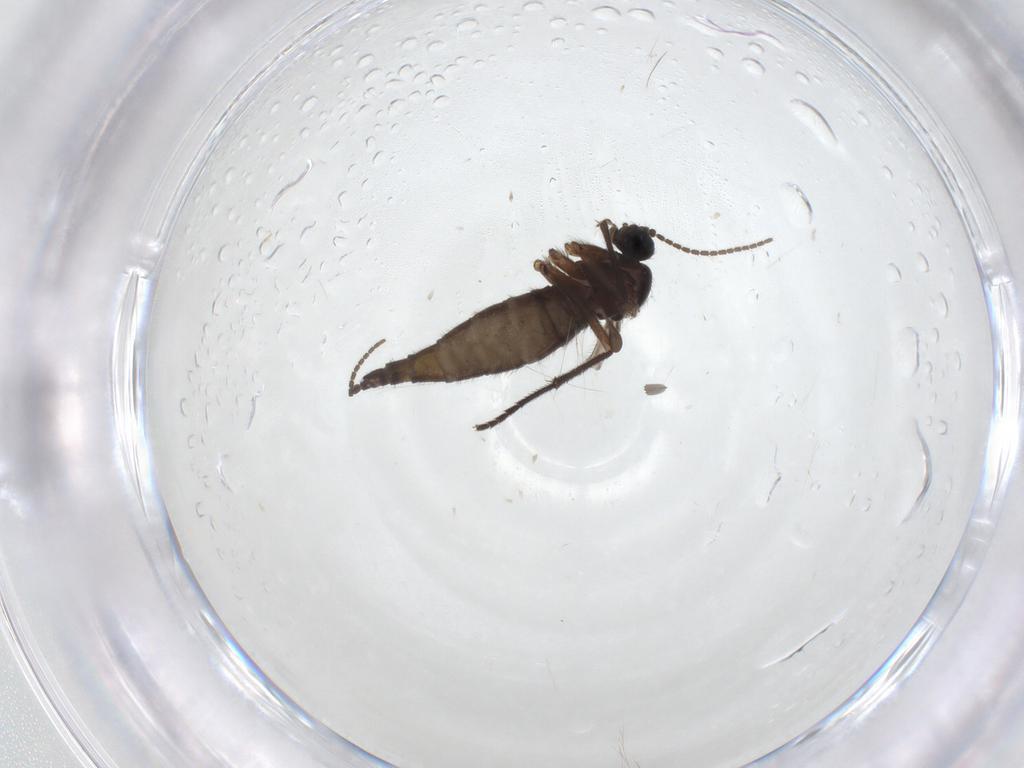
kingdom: Animalia
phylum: Arthropoda
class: Insecta
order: Diptera
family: Sciaridae
